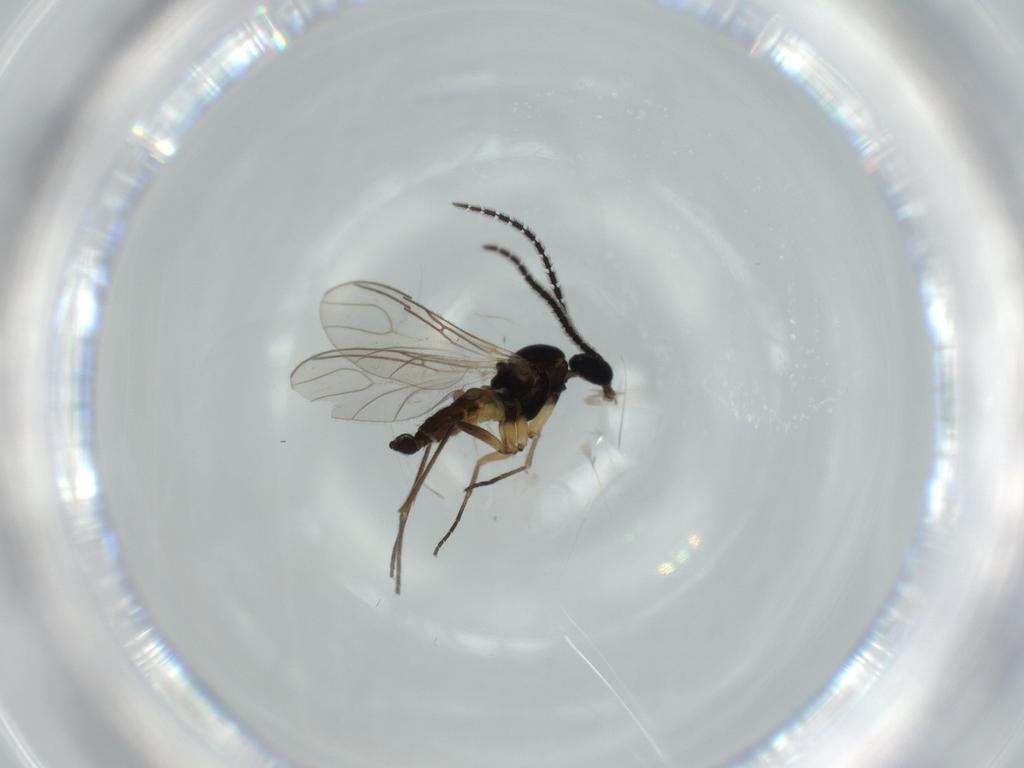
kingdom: Animalia
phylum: Arthropoda
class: Insecta
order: Diptera
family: Sciaridae
